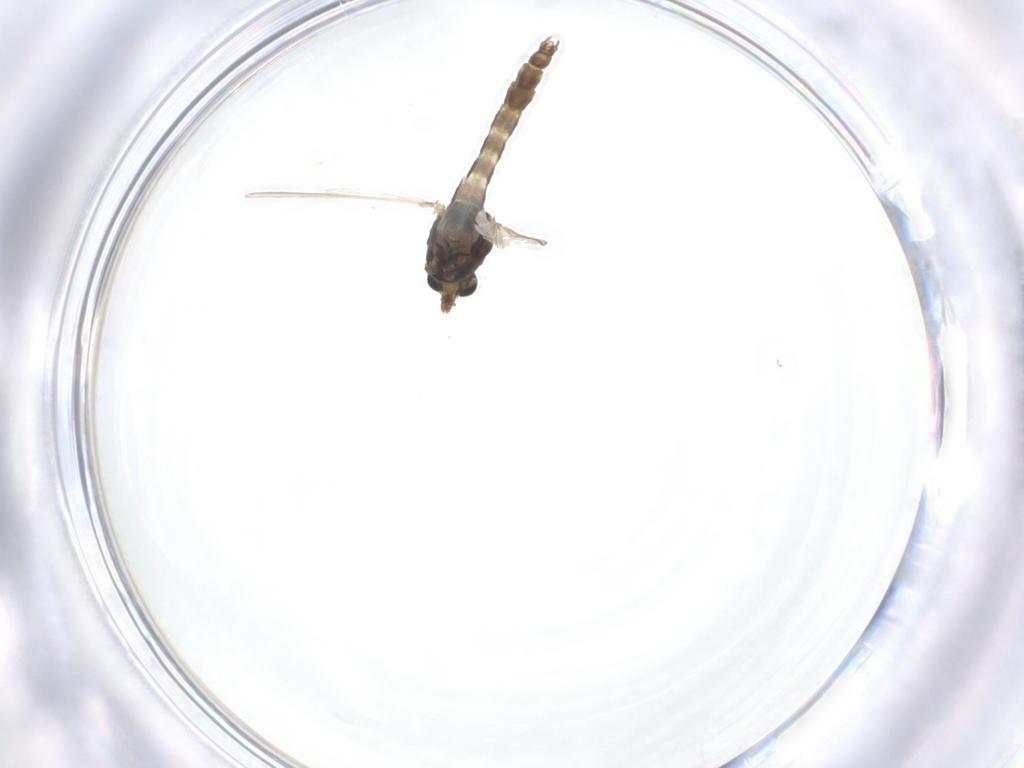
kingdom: Animalia
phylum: Arthropoda
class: Insecta
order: Diptera
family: Chironomidae
